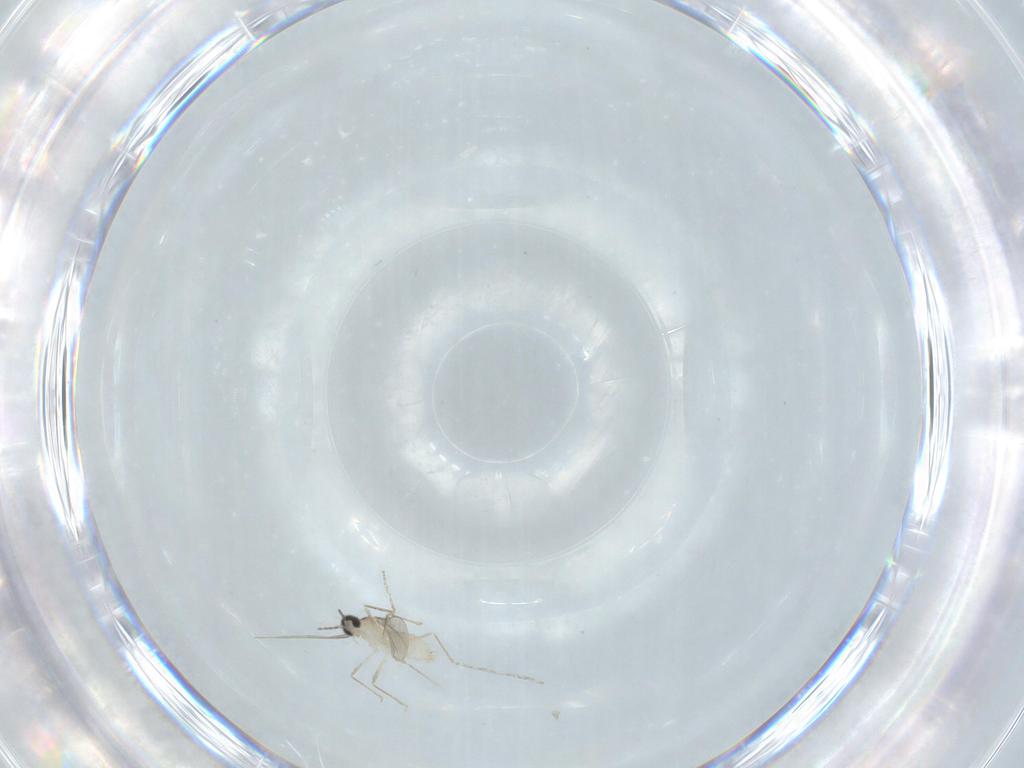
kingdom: Animalia
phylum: Arthropoda
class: Insecta
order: Diptera
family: Cecidomyiidae
